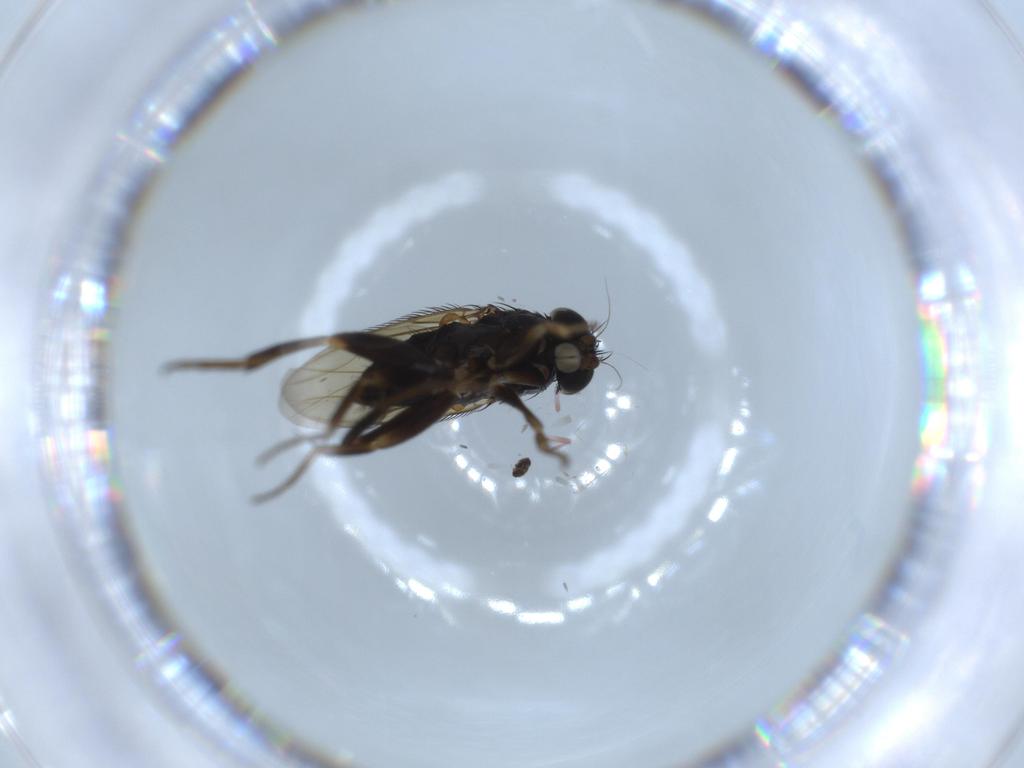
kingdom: Animalia
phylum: Arthropoda
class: Insecta
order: Diptera
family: Phoridae
